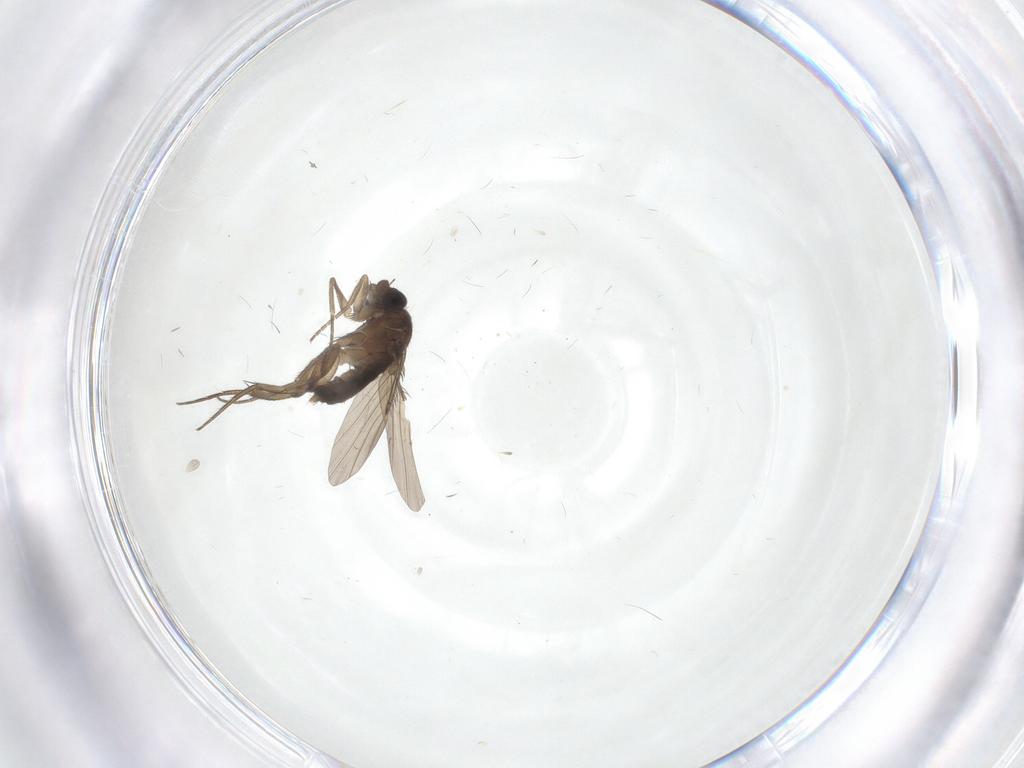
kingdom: Animalia
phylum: Arthropoda
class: Insecta
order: Diptera
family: Cecidomyiidae
